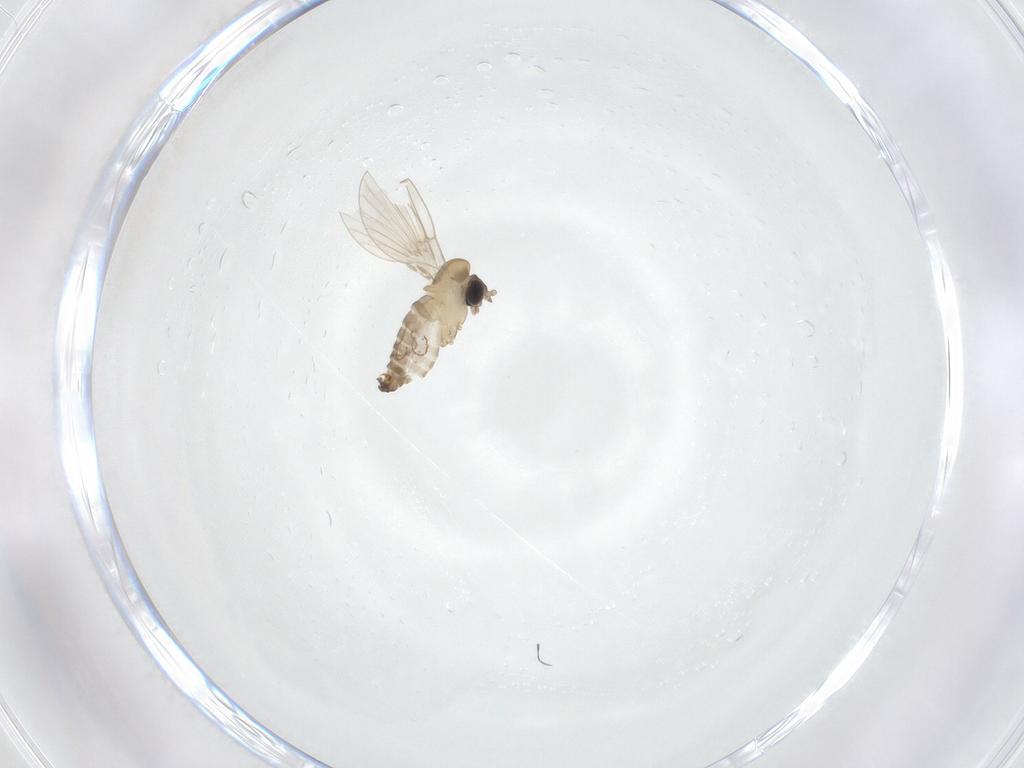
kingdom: Animalia
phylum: Arthropoda
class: Insecta
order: Diptera
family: Psychodidae
